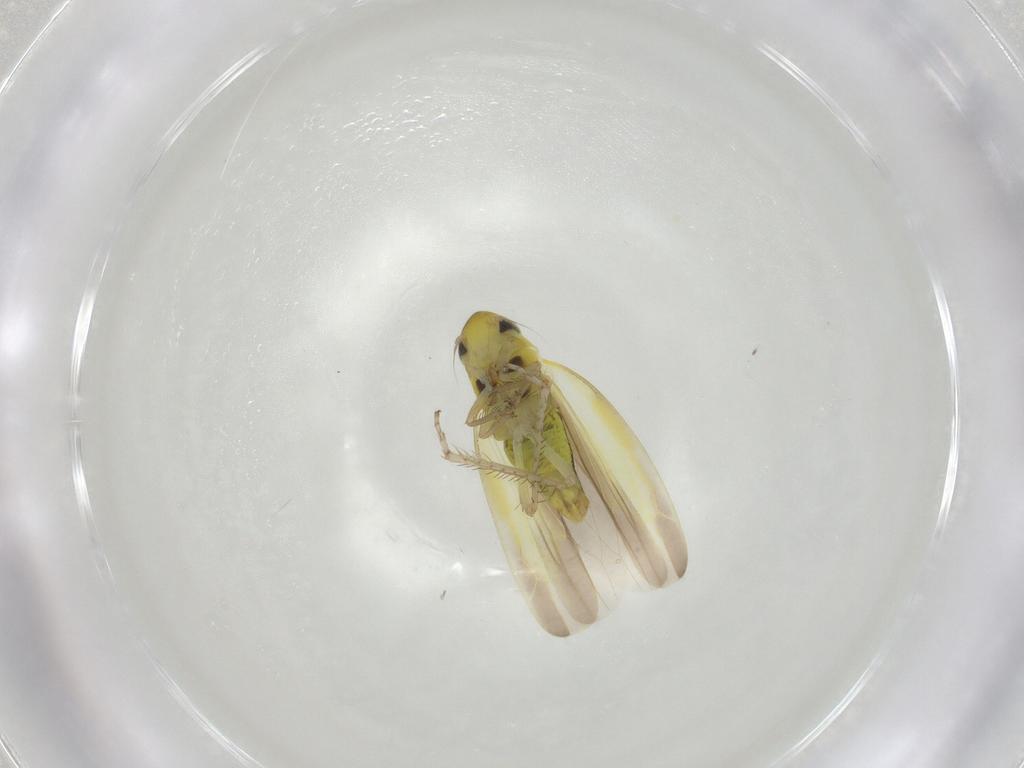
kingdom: Animalia
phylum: Arthropoda
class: Insecta
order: Hemiptera
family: Cicadellidae
